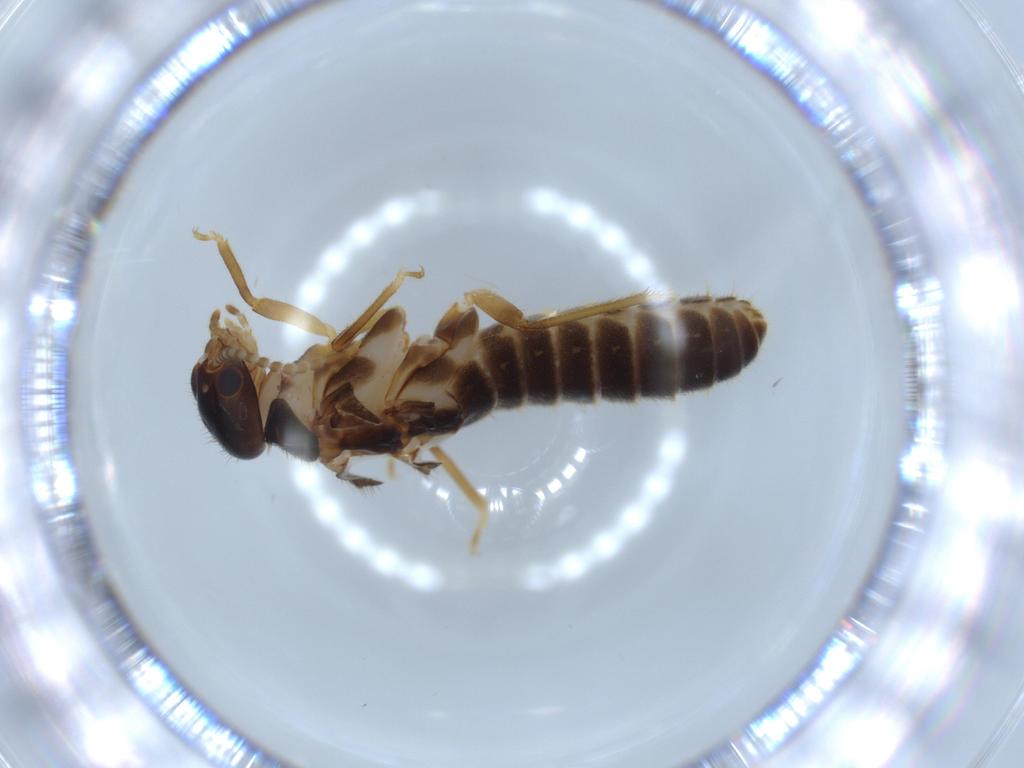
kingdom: Animalia
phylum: Arthropoda
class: Insecta
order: Blattodea
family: Termitidae
